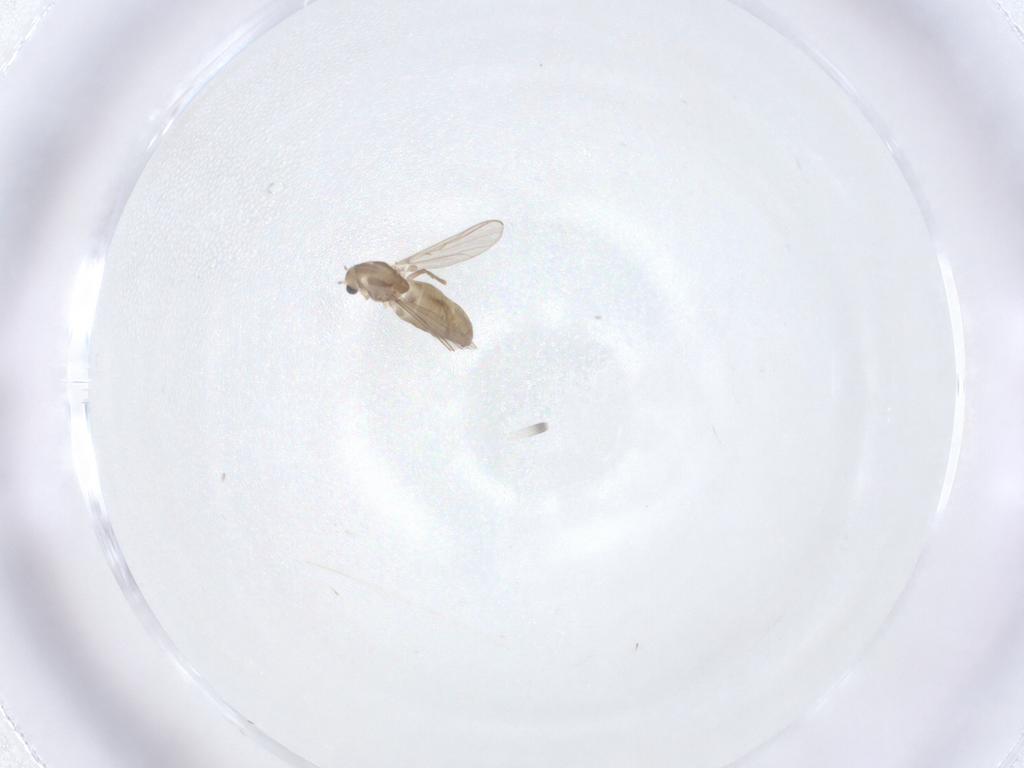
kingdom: Animalia
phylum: Arthropoda
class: Insecta
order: Diptera
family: Chironomidae
